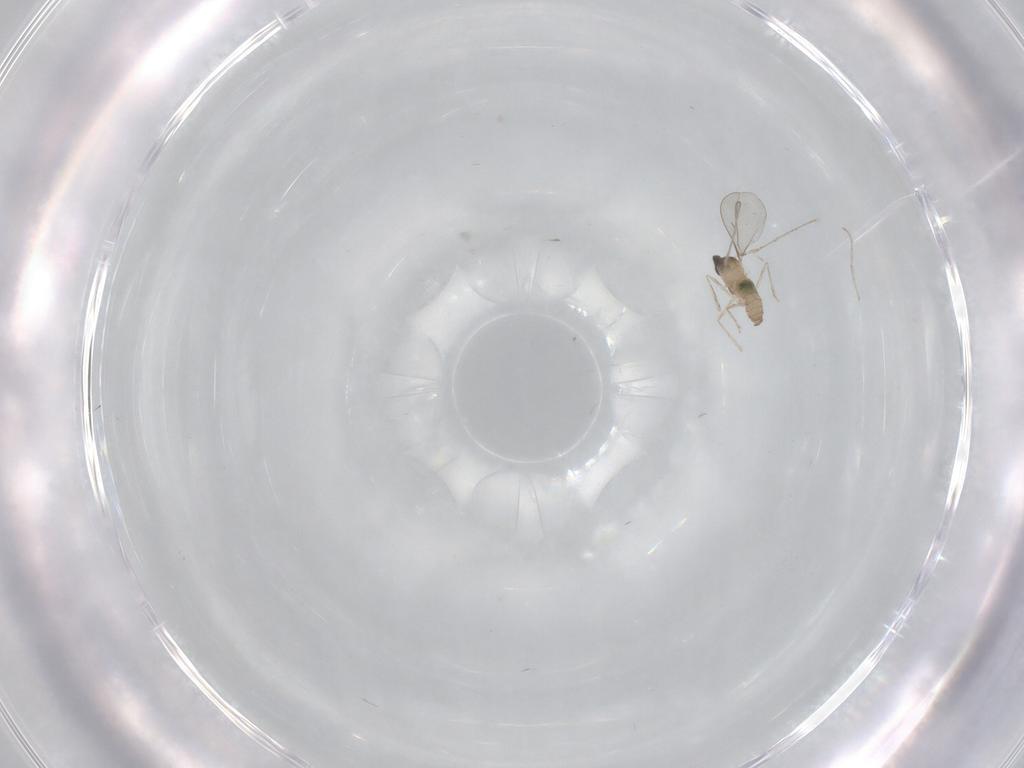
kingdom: Animalia
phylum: Arthropoda
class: Insecta
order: Diptera
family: Cecidomyiidae
